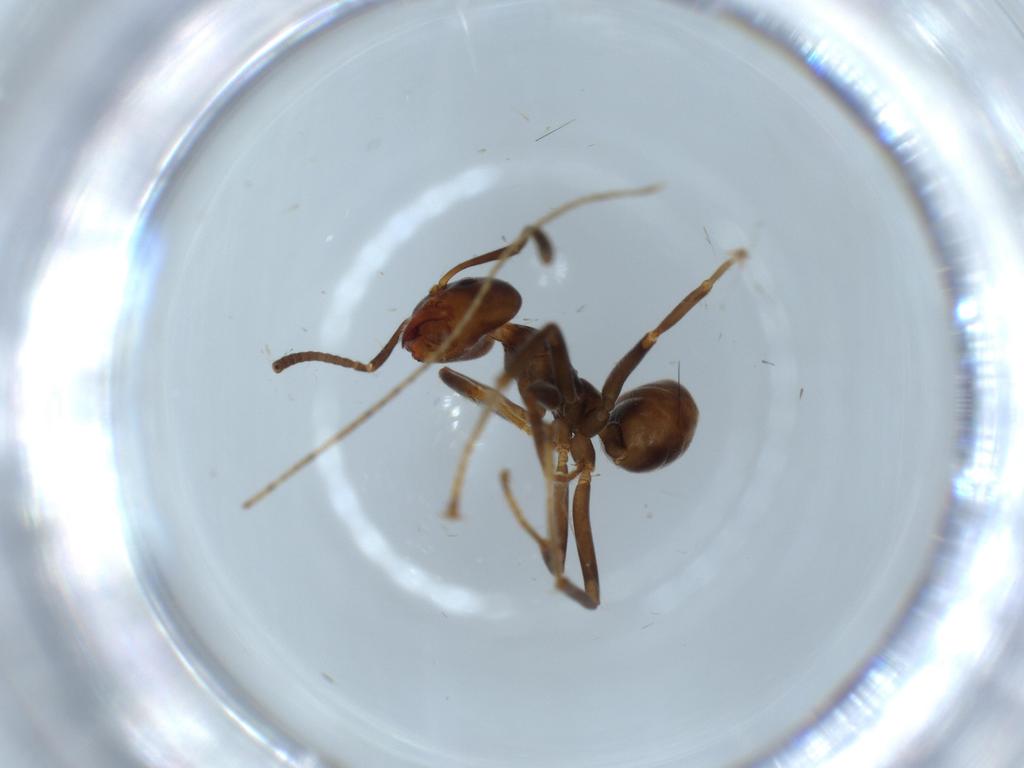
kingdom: Animalia
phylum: Arthropoda
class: Insecta
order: Hymenoptera
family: Formicidae
